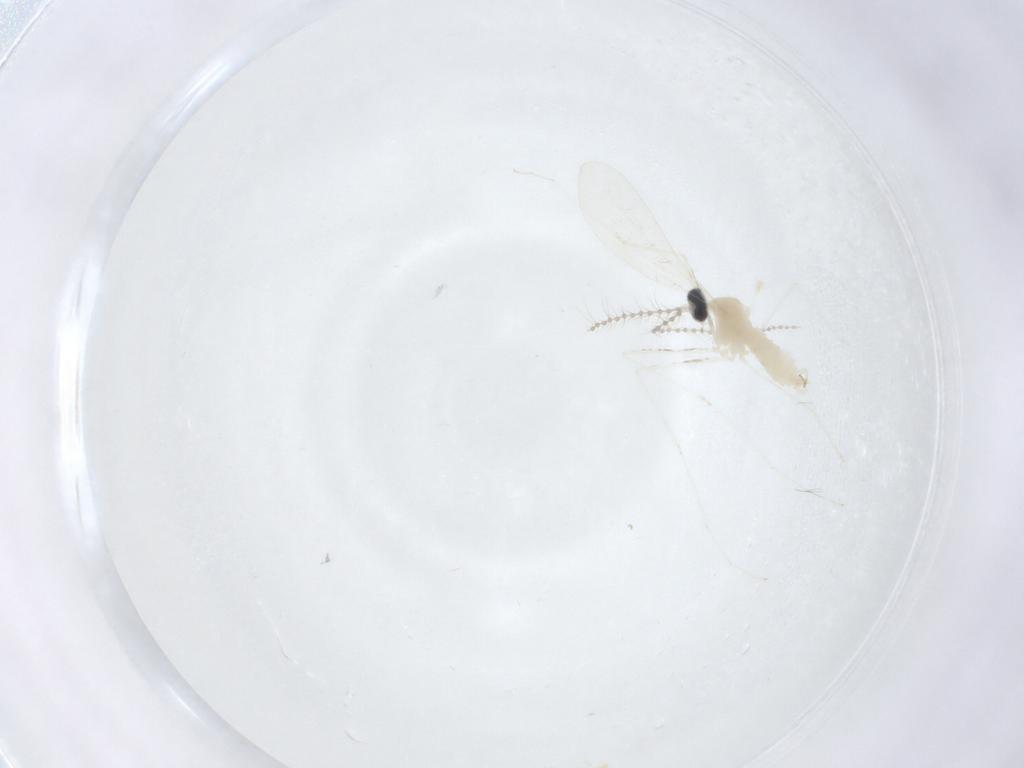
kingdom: Animalia
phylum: Arthropoda
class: Insecta
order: Diptera
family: Cecidomyiidae
